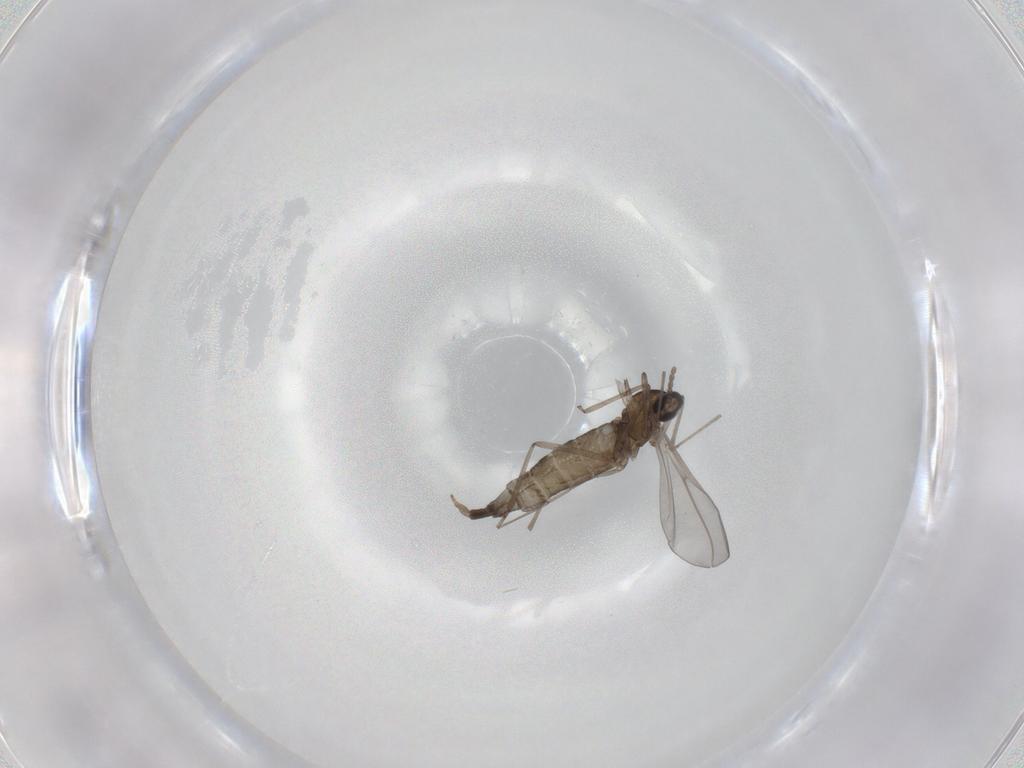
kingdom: Animalia
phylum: Arthropoda
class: Insecta
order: Diptera
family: Cecidomyiidae
